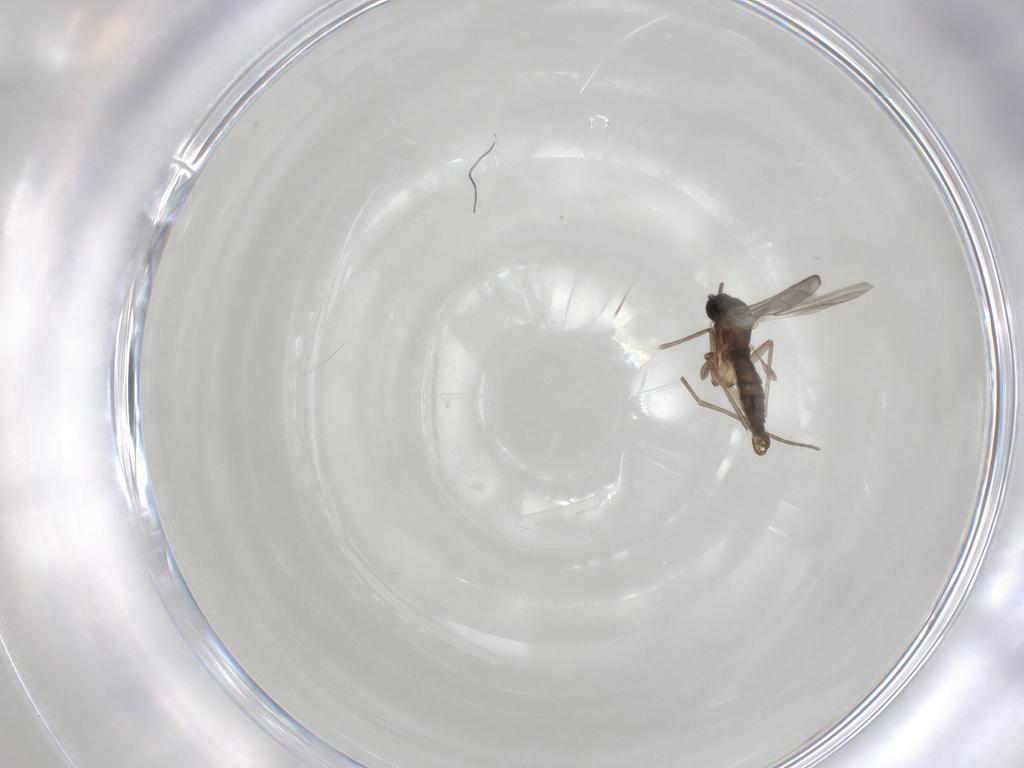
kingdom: Animalia
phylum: Arthropoda
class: Insecta
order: Diptera
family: Sciaridae
